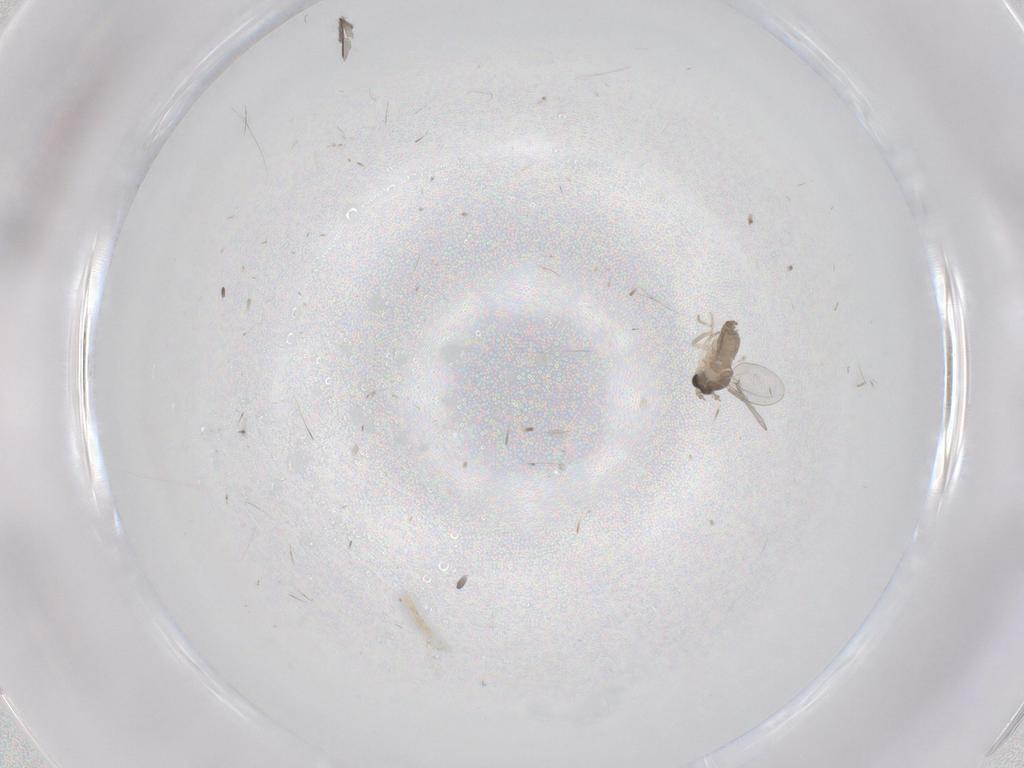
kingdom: Animalia
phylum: Arthropoda
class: Insecta
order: Diptera
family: Cecidomyiidae
